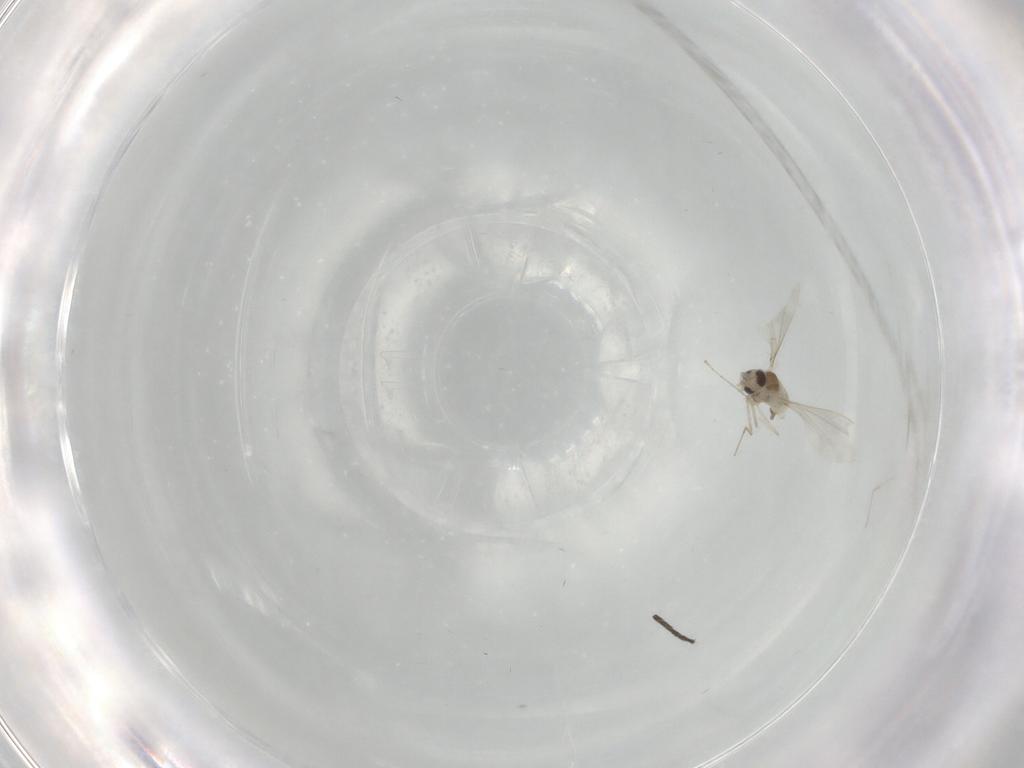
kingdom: Animalia
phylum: Arthropoda
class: Insecta
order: Diptera
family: Cecidomyiidae
